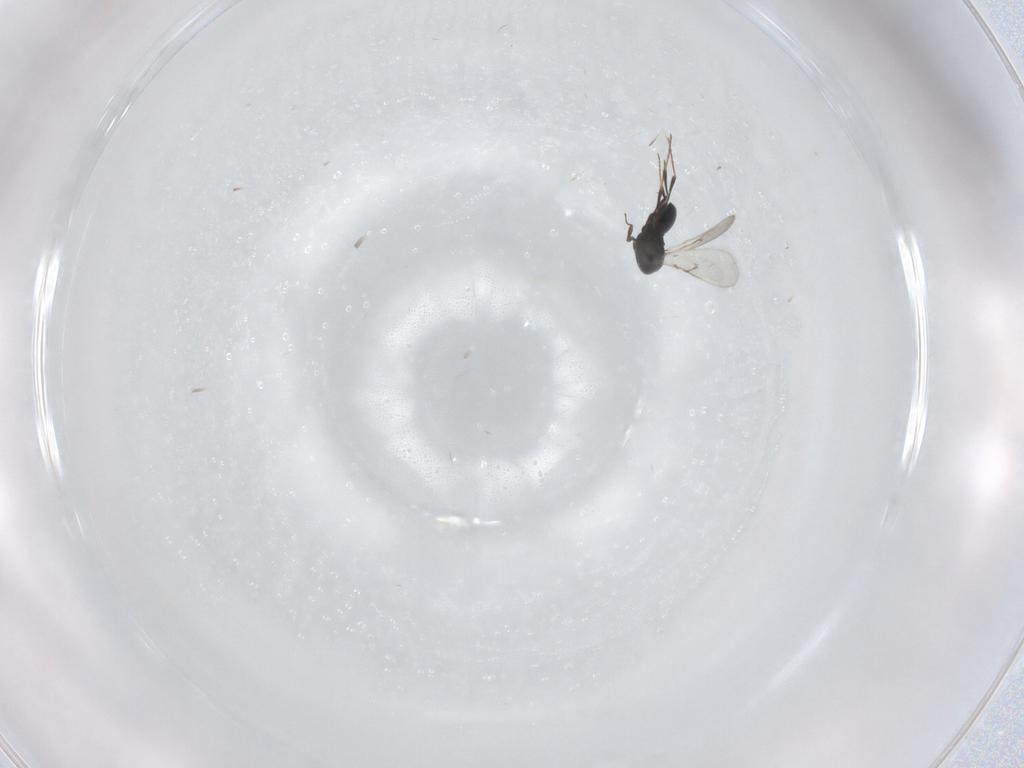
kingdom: Animalia
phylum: Arthropoda
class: Insecta
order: Hymenoptera
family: Scelionidae
